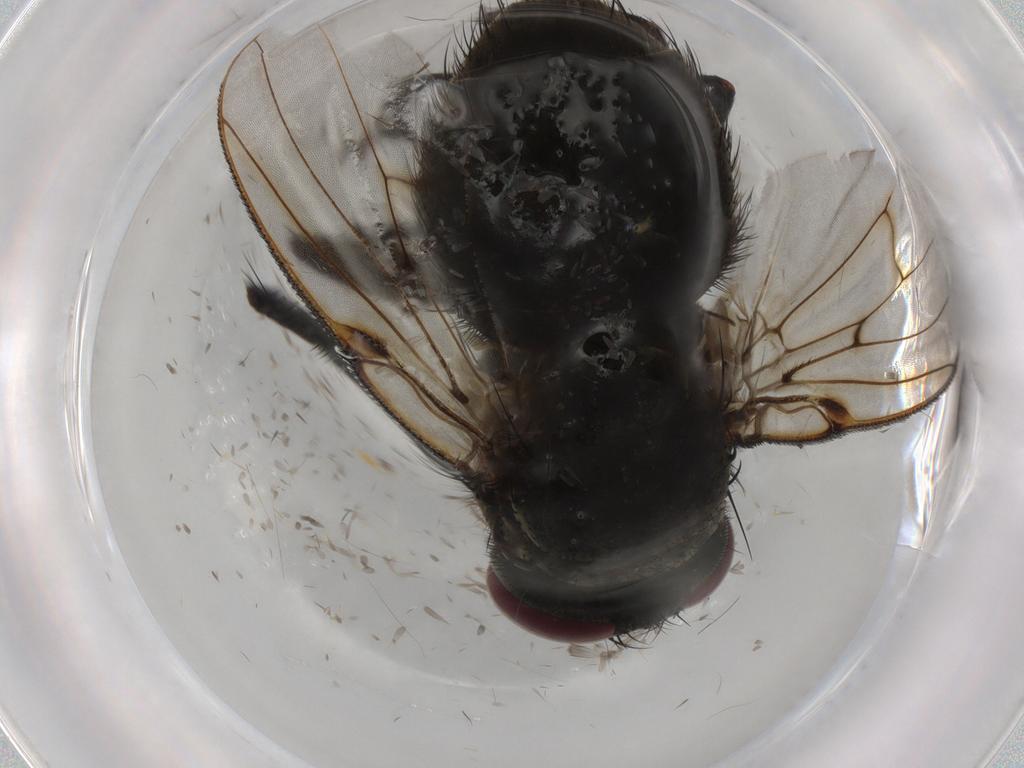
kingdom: Animalia
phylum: Arthropoda
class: Insecta
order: Diptera
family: Muscidae
